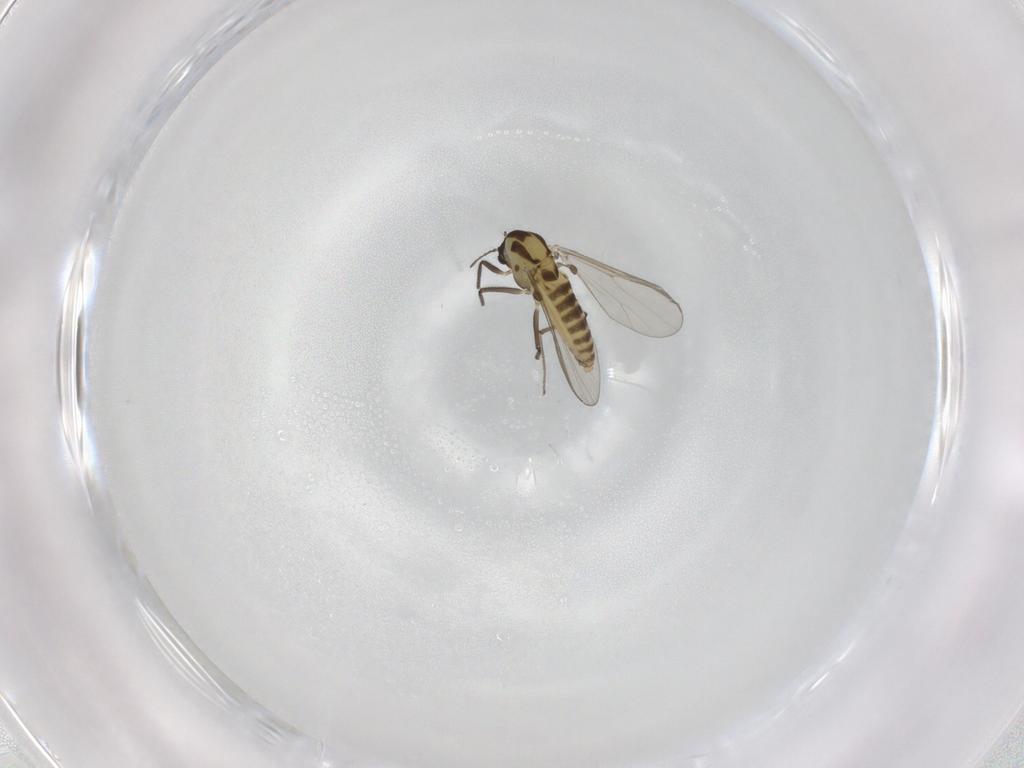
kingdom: Animalia
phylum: Arthropoda
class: Insecta
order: Diptera
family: Chironomidae
